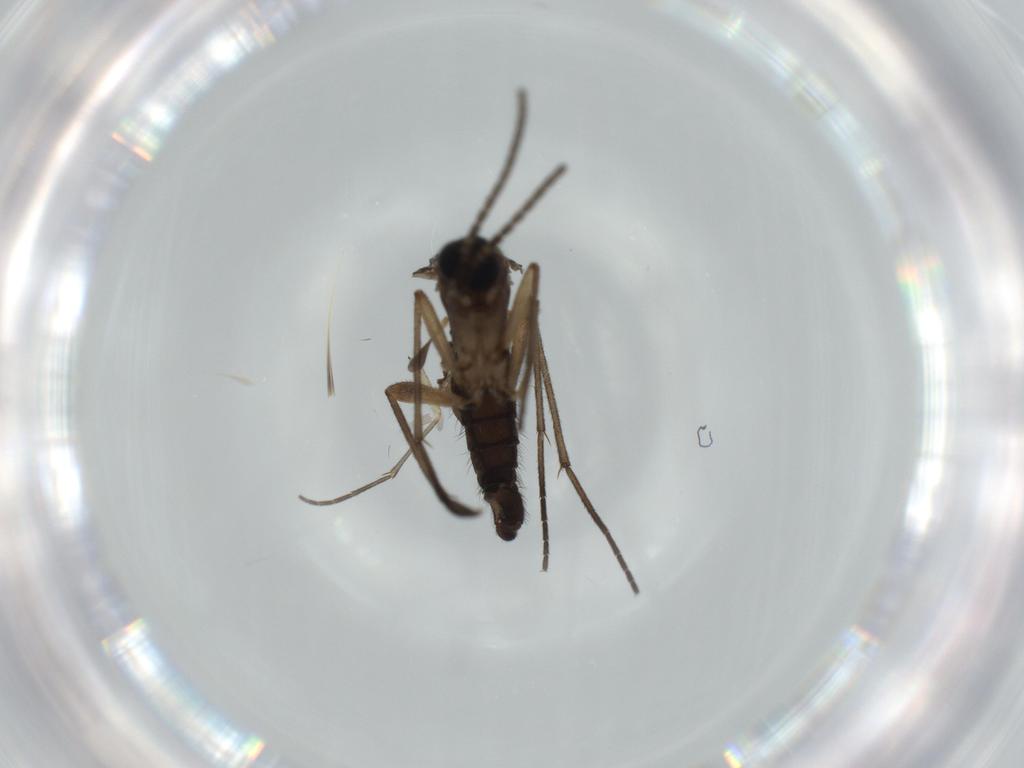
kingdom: Animalia
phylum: Arthropoda
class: Insecta
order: Diptera
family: Sciaridae
